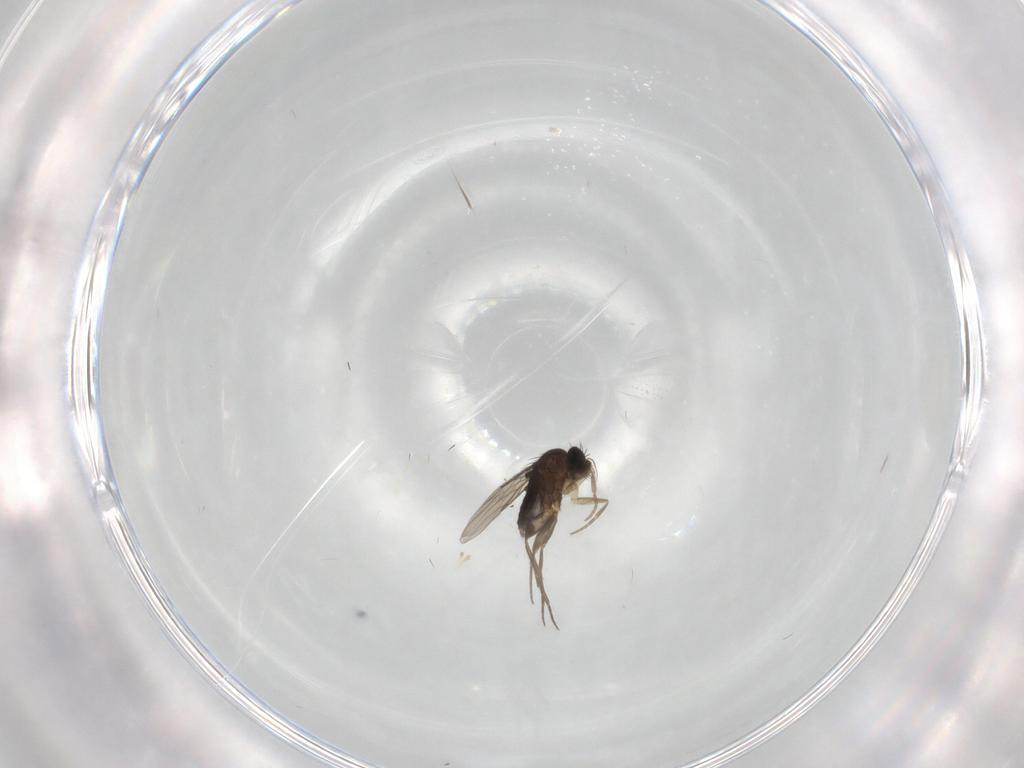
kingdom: Animalia
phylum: Arthropoda
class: Insecta
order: Diptera
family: Phoridae
